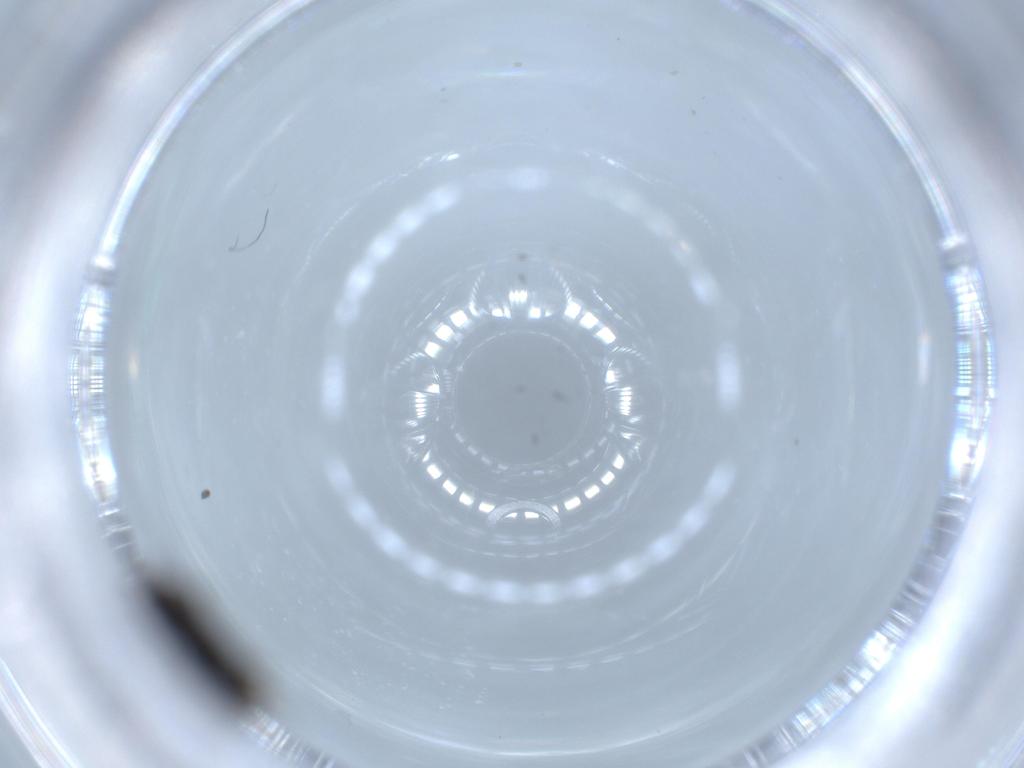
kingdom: Animalia
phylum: Arthropoda
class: Insecta
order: Diptera
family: Sphaeroceridae
